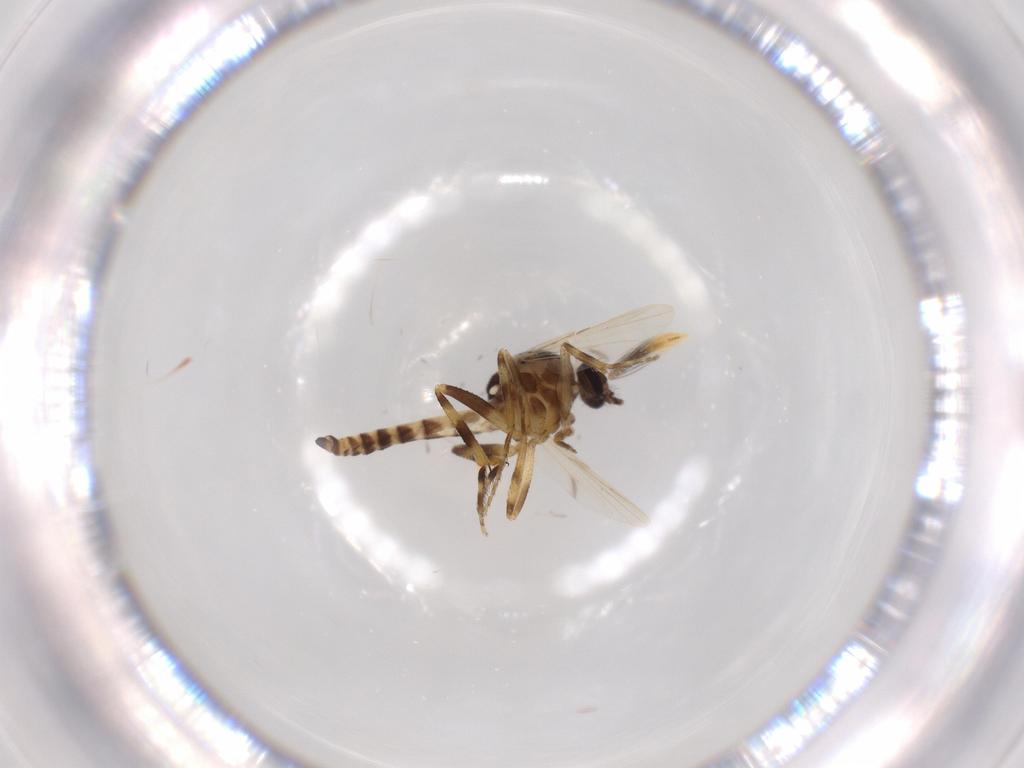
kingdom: Animalia
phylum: Arthropoda
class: Insecta
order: Diptera
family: Ceratopogonidae
